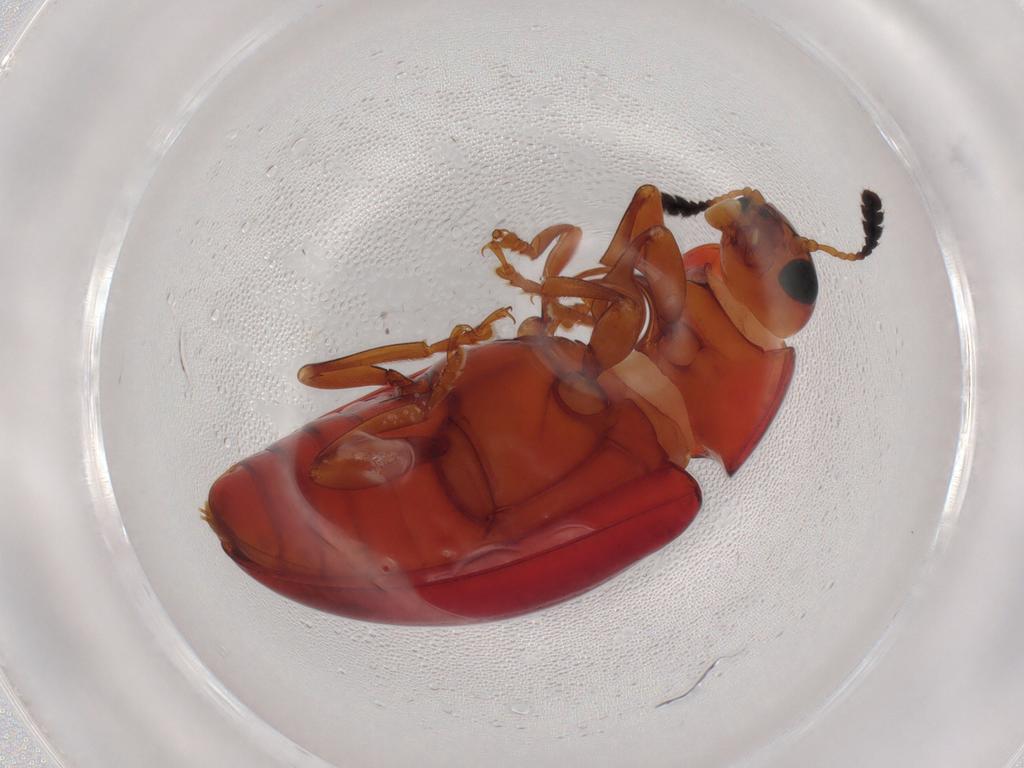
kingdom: Animalia
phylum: Arthropoda
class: Insecta
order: Coleoptera
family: Erotylidae
